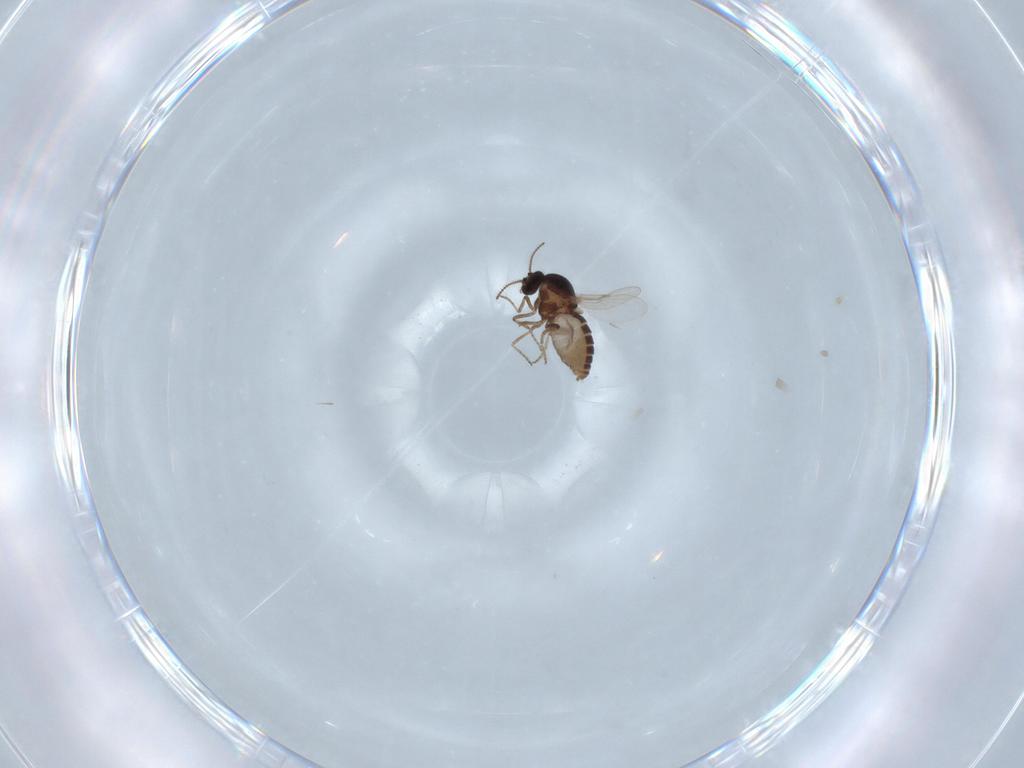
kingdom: Animalia
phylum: Arthropoda
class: Insecta
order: Diptera
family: Ceratopogonidae
